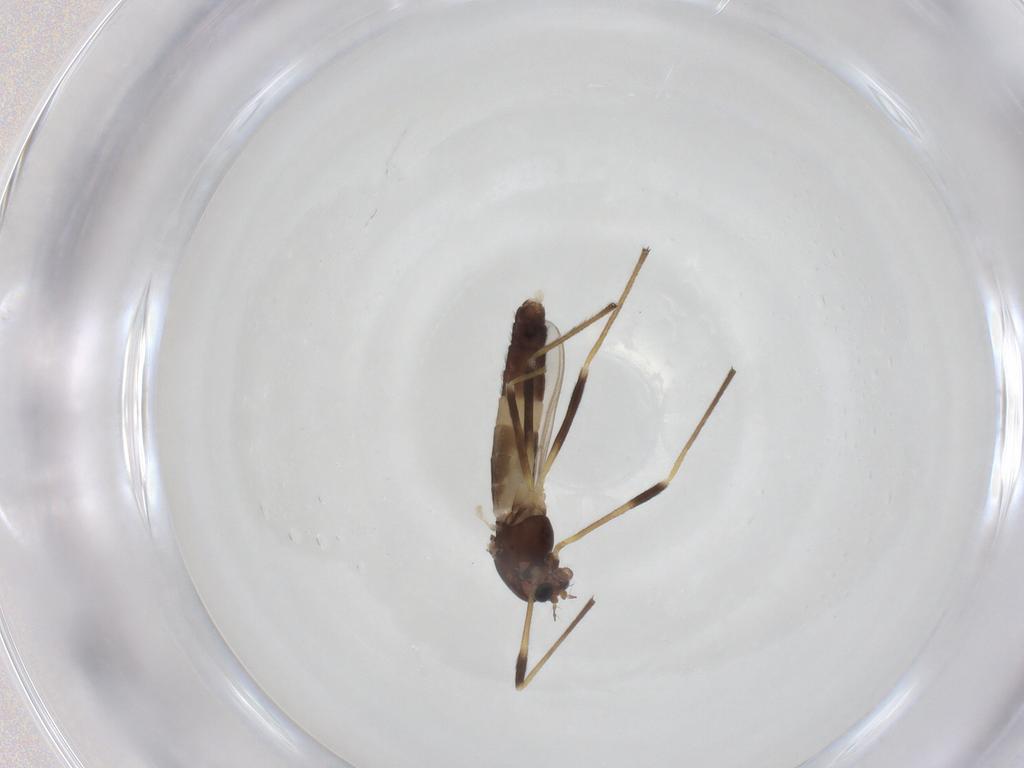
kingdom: Animalia
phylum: Arthropoda
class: Insecta
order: Diptera
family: Chironomidae
